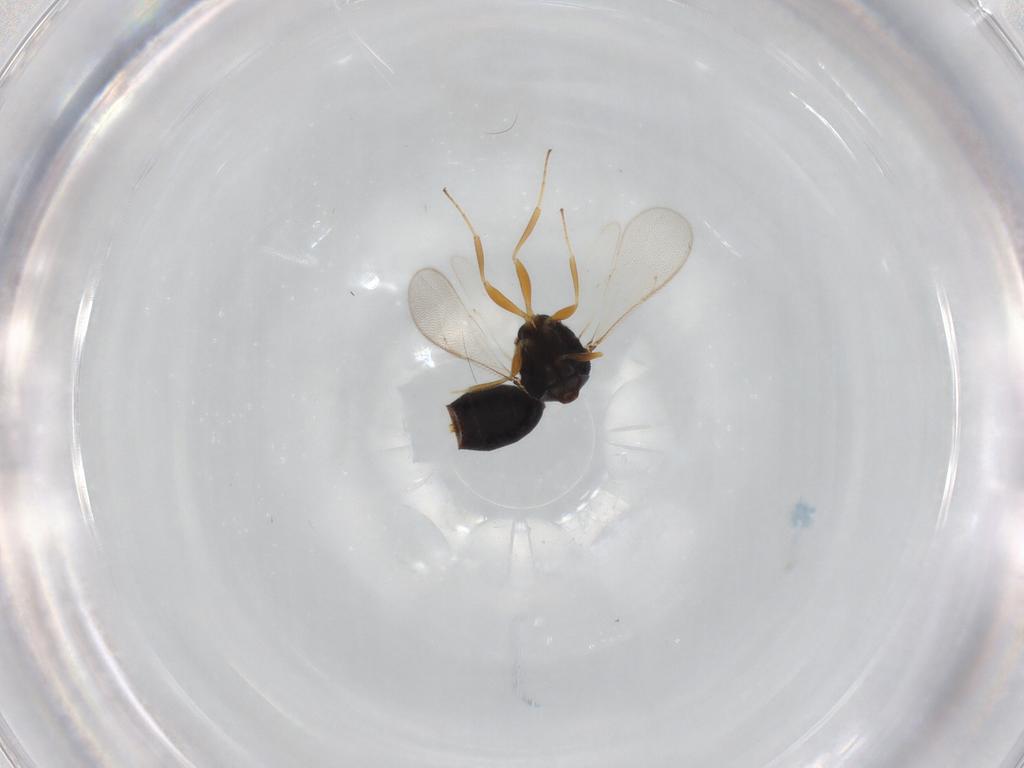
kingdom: Animalia
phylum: Arthropoda
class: Insecta
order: Hymenoptera
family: Scelionidae
